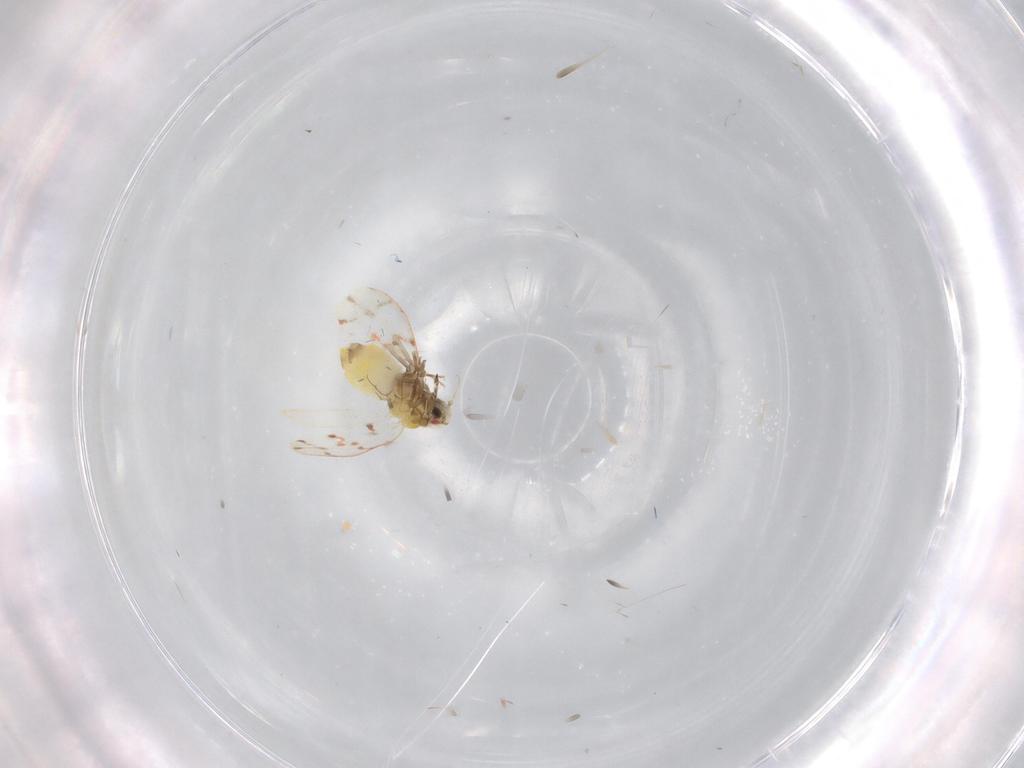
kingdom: Animalia
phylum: Arthropoda
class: Insecta
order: Hemiptera
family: Aleyrodidae
